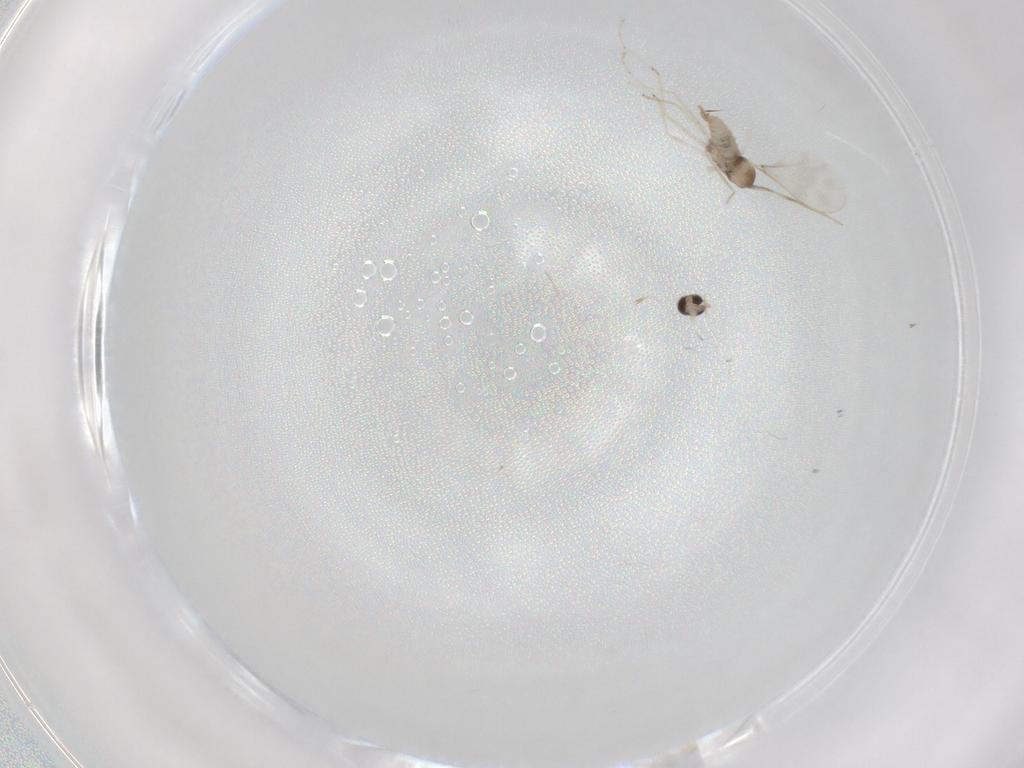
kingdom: Animalia
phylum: Arthropoda
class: Insecta
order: Diptera
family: Cecidomyiidae
